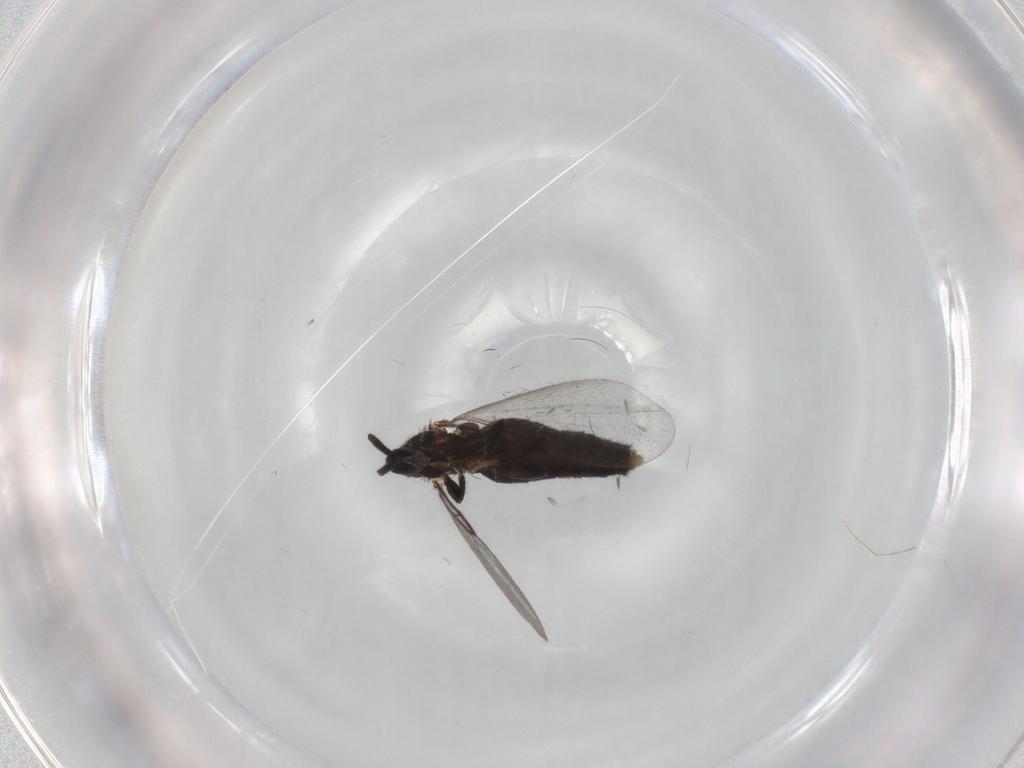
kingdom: Animalia
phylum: Arthropoda
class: Insecta
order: Diptera
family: Scatopsidae
